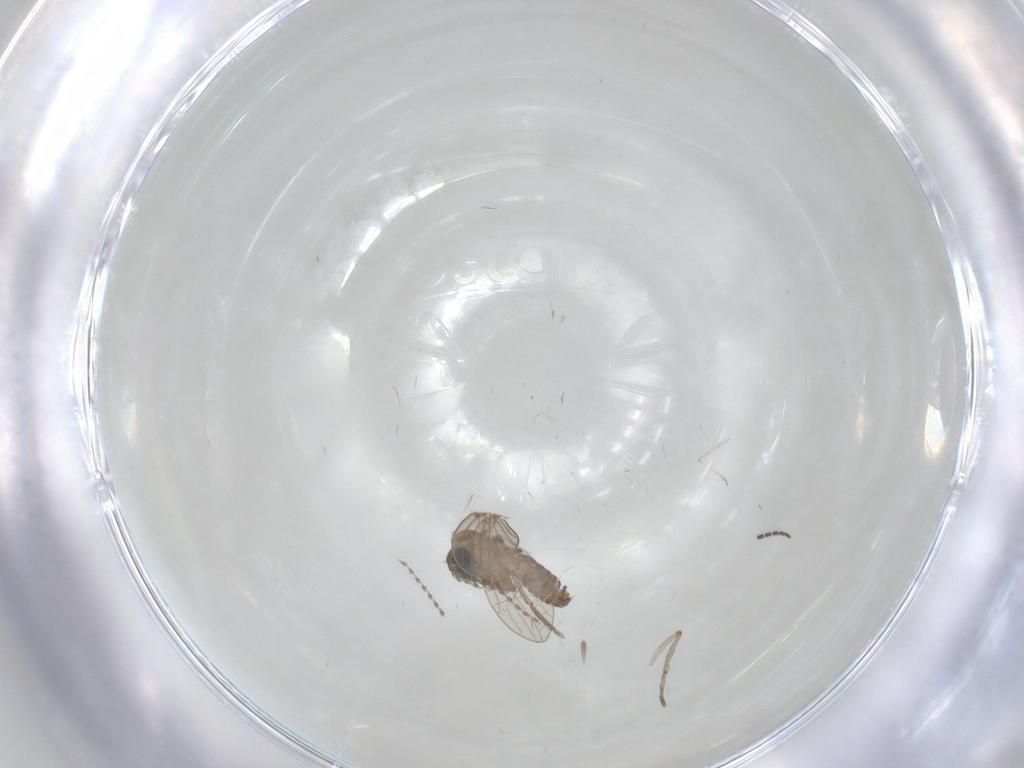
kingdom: Animalia
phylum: Arthropoda
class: Insecta
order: Diptera
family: Sciaridae
